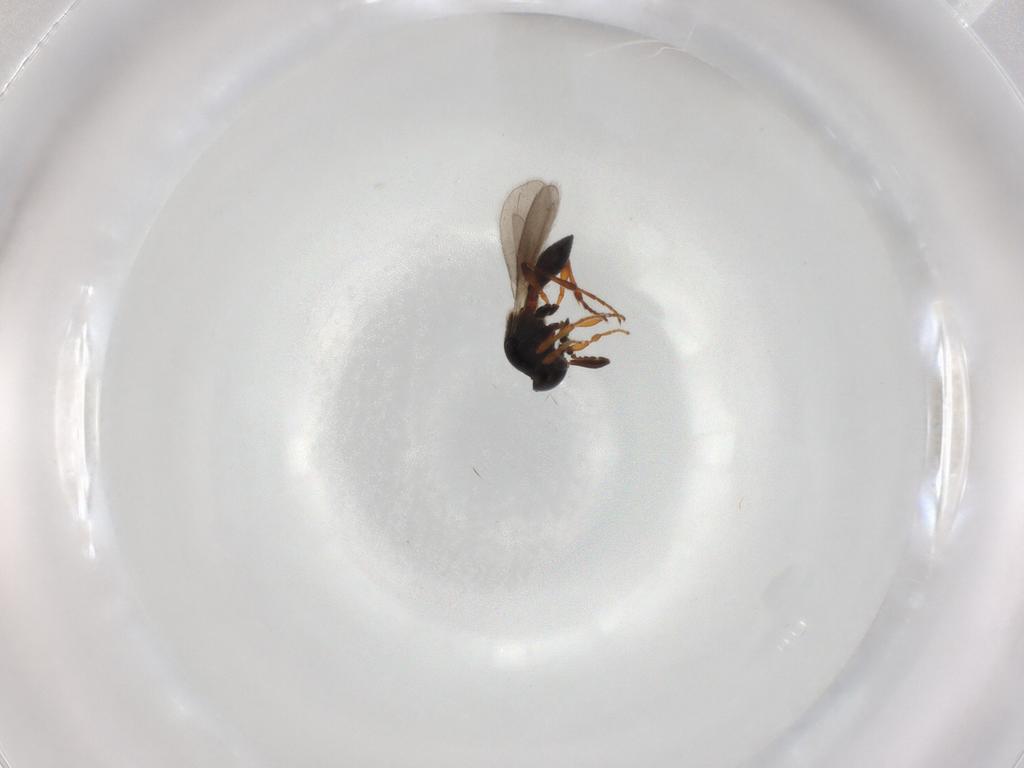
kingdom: Animalia
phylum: Arthropoda
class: Insecta
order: Hymenoptera
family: Platygastridae
